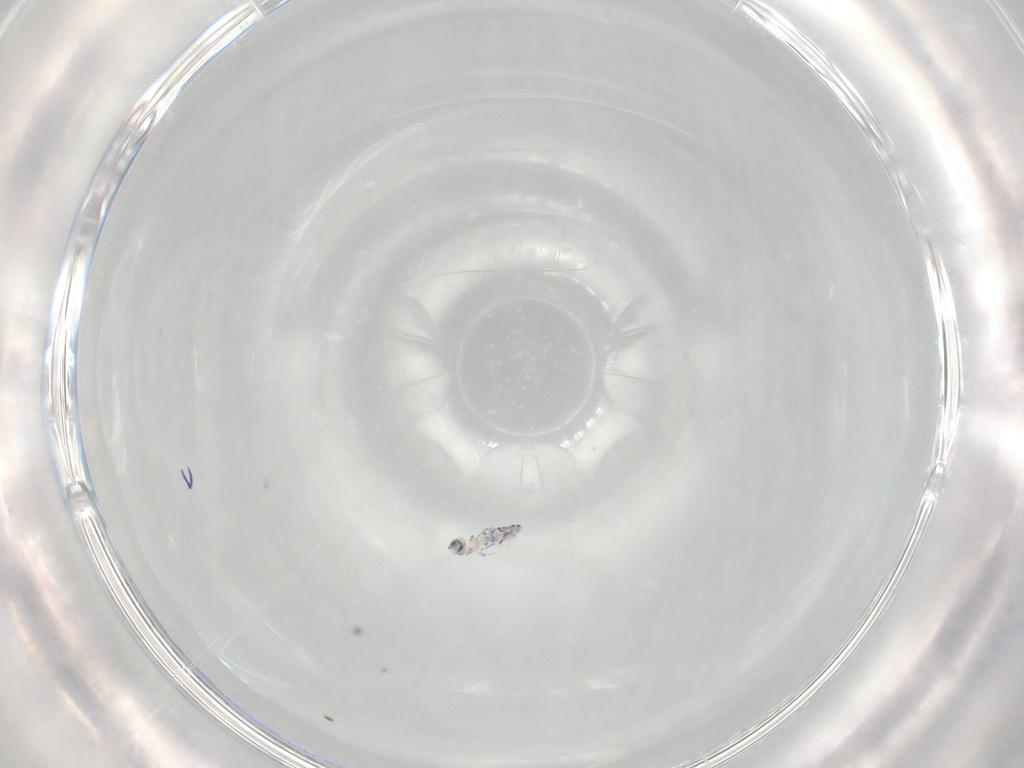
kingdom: Animalia
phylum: Arthropoda
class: Collembola
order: Entomobryomorpha
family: Entomobryidae
